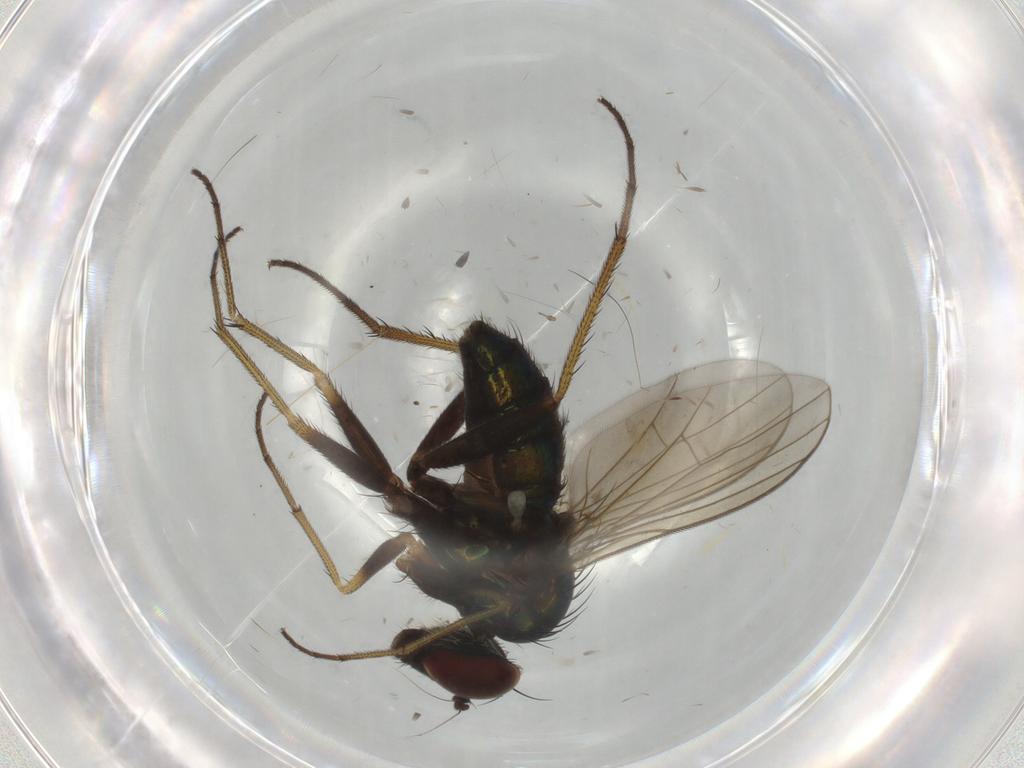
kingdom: Animalia
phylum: Arthropoda
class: Insecta
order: Diptera
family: Dolichopodidae
